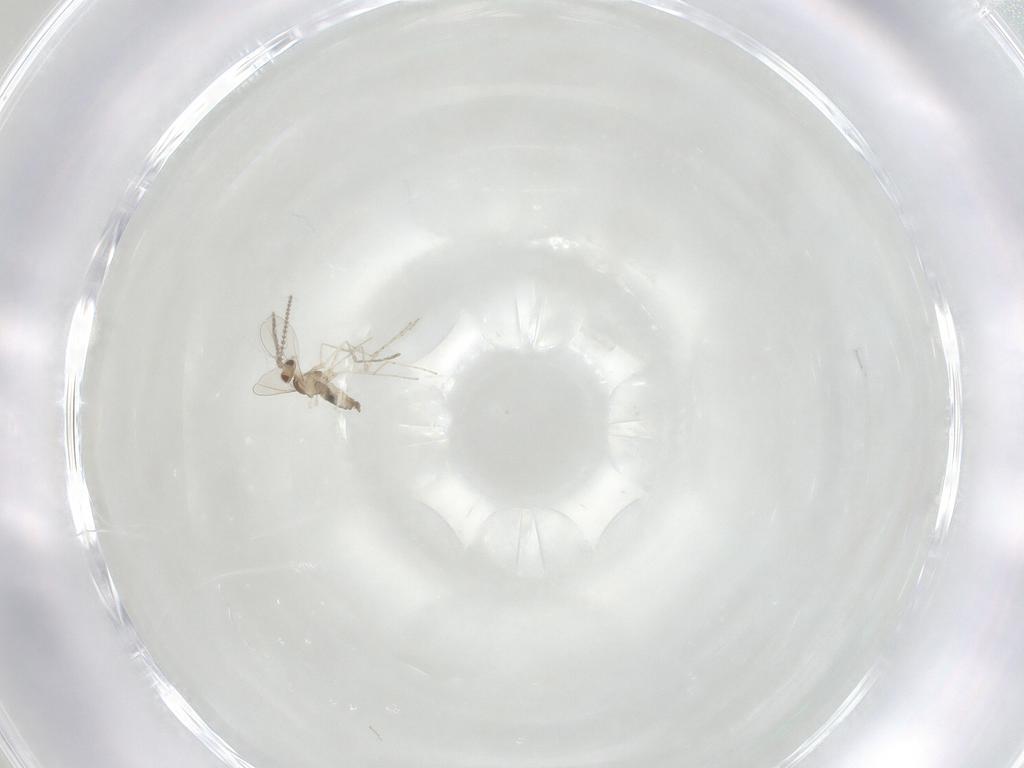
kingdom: Animalia
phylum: Arthropoda
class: Insecta
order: Diptera
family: Cecidomyiidae
